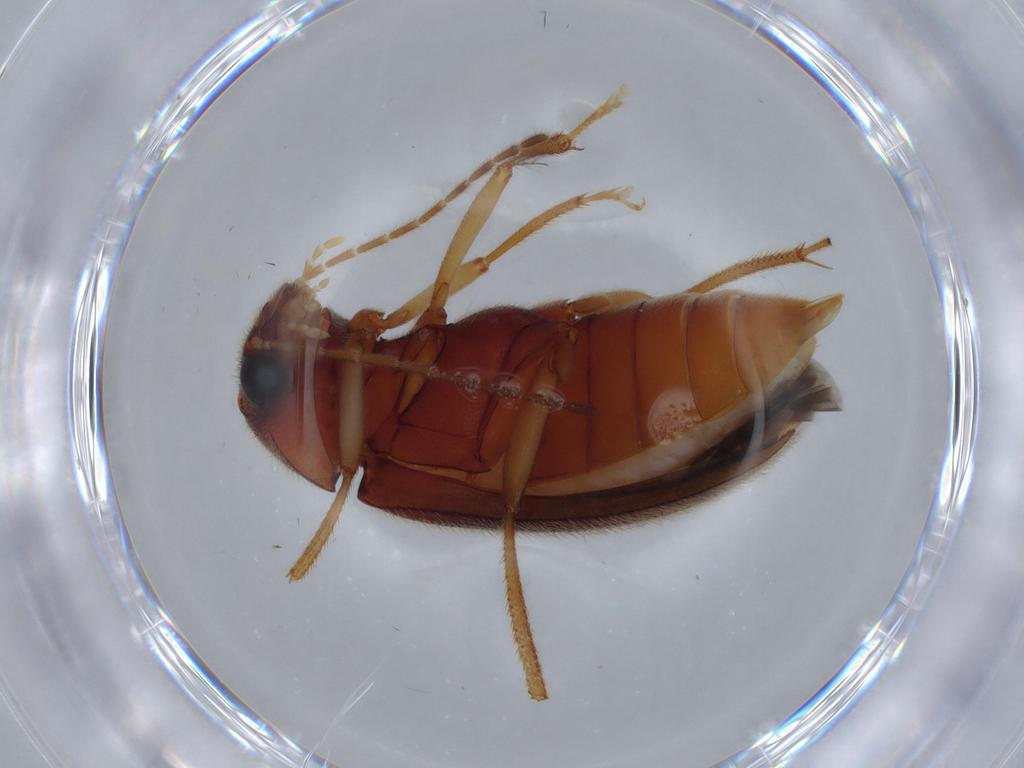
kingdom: Animalia
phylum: Arthropoda
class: Insecta
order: Coleoptera
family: Ptilodactylidae
